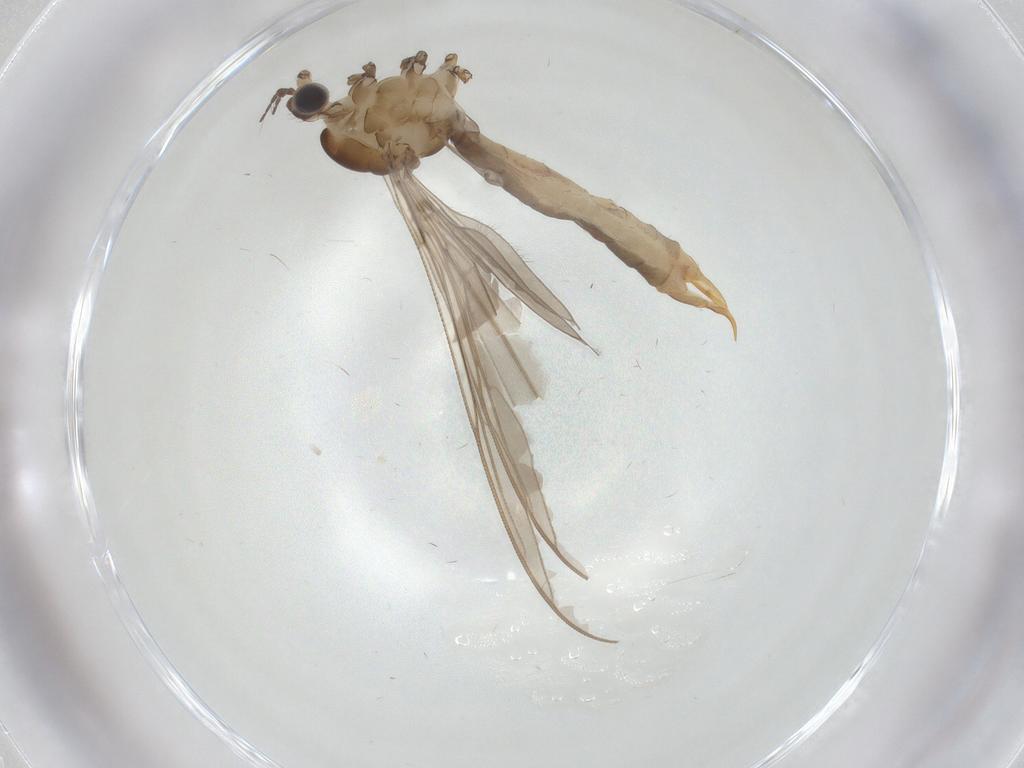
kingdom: Animalia
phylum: Arthropoda
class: Insecta
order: Diptera
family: Limoniidae
